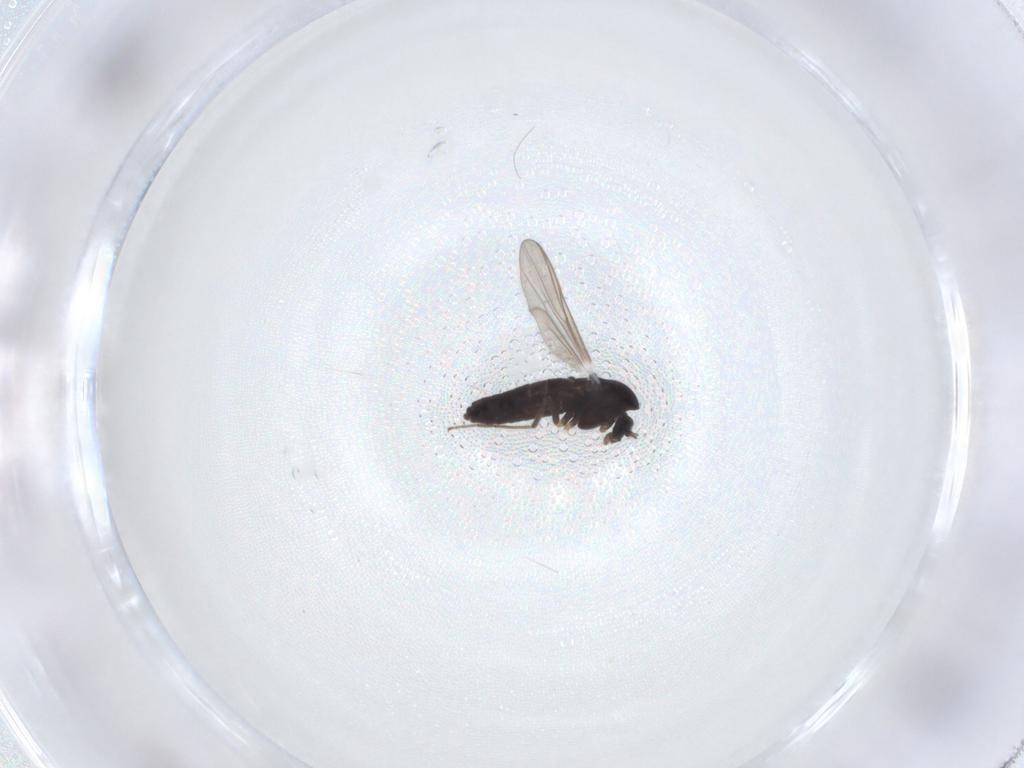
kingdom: Animalia
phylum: Arthropoda
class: Insecta
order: Diptera
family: Chironomidae
